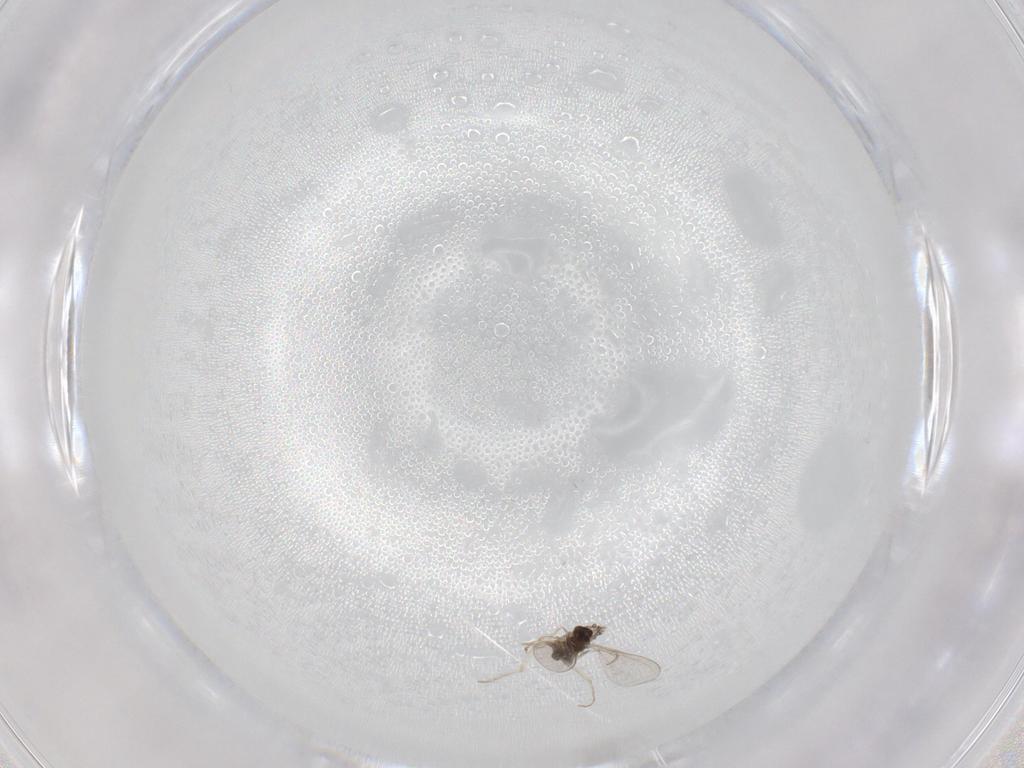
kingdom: Animalia
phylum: Arthropoda
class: Insecta
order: Diptera
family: Cecidomyiidae
